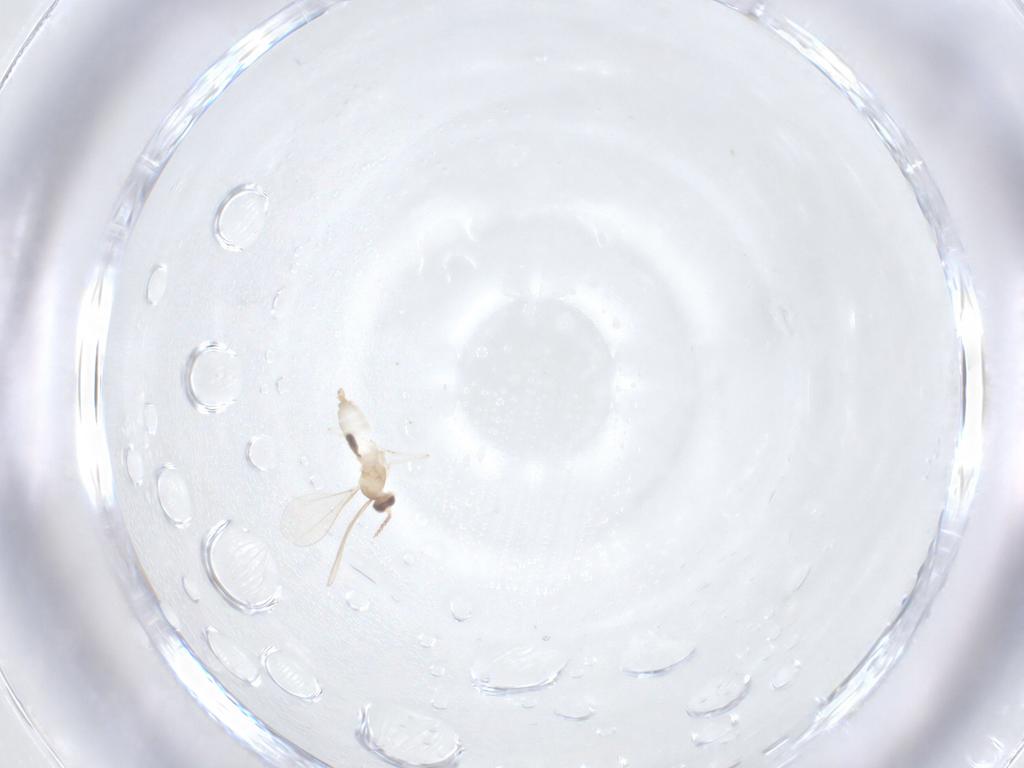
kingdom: Animalia
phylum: Arthropoda
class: Insecta
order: Diptera
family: Cecidomyiidae
